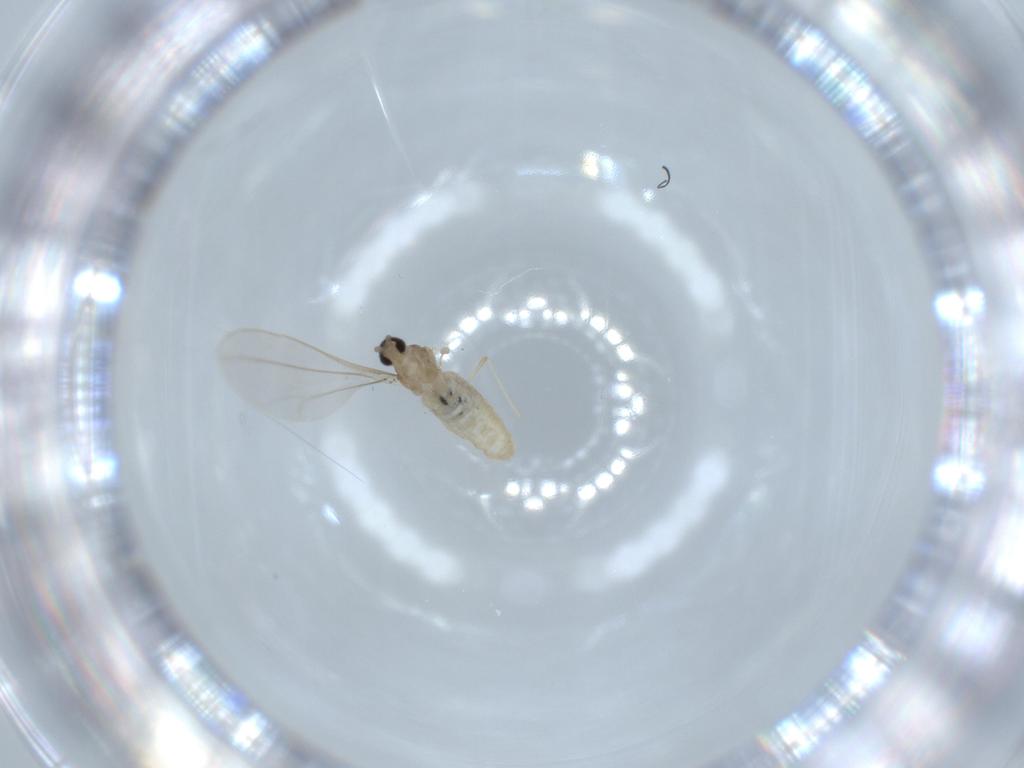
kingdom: Animalia
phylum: Arthropoda
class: Insecta
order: Diptera
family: Cecidomyiidae
